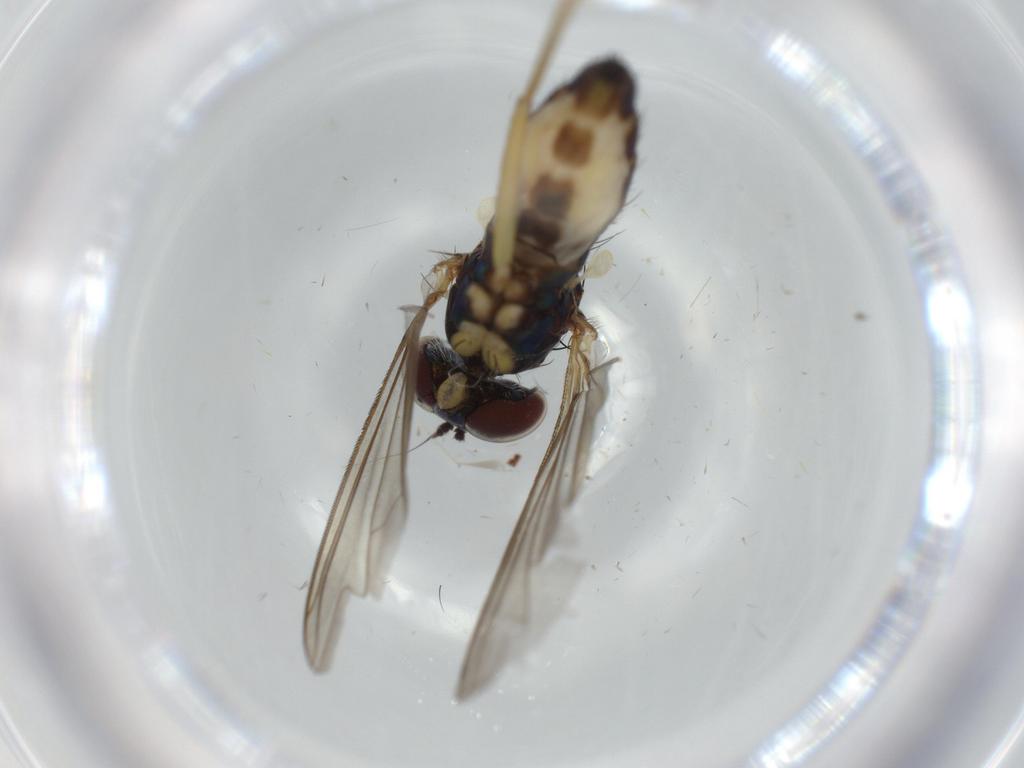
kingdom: Animalia
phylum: Arthropoda
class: Insecta
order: Diptera
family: Dolichopodidae
